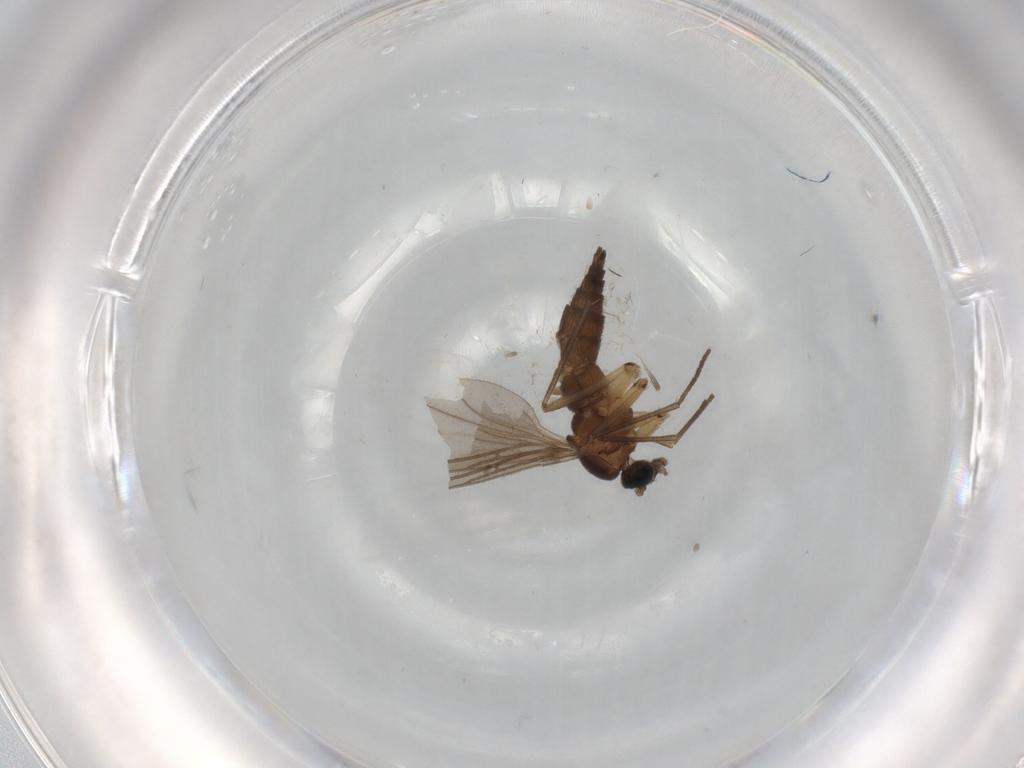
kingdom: Animalia
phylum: Arthropoda
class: Insecta
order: Diptera
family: Sciaridae
